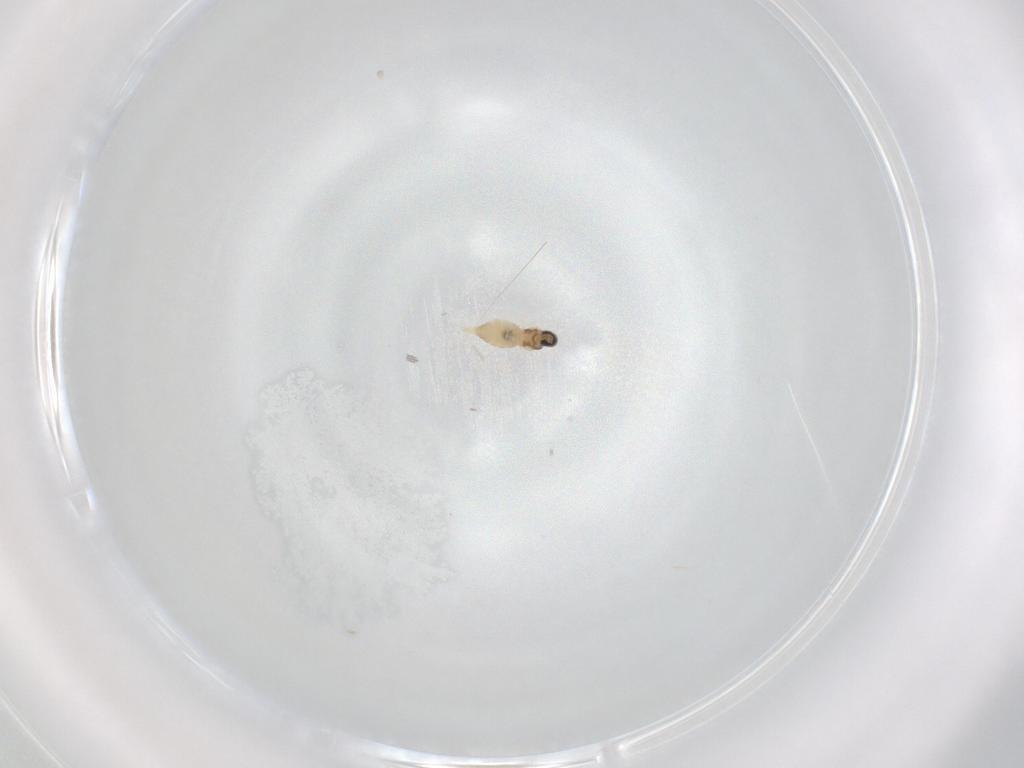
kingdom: Animalia
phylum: Arthropoda
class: Insecta
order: Diptera
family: Cecidomyiidae
